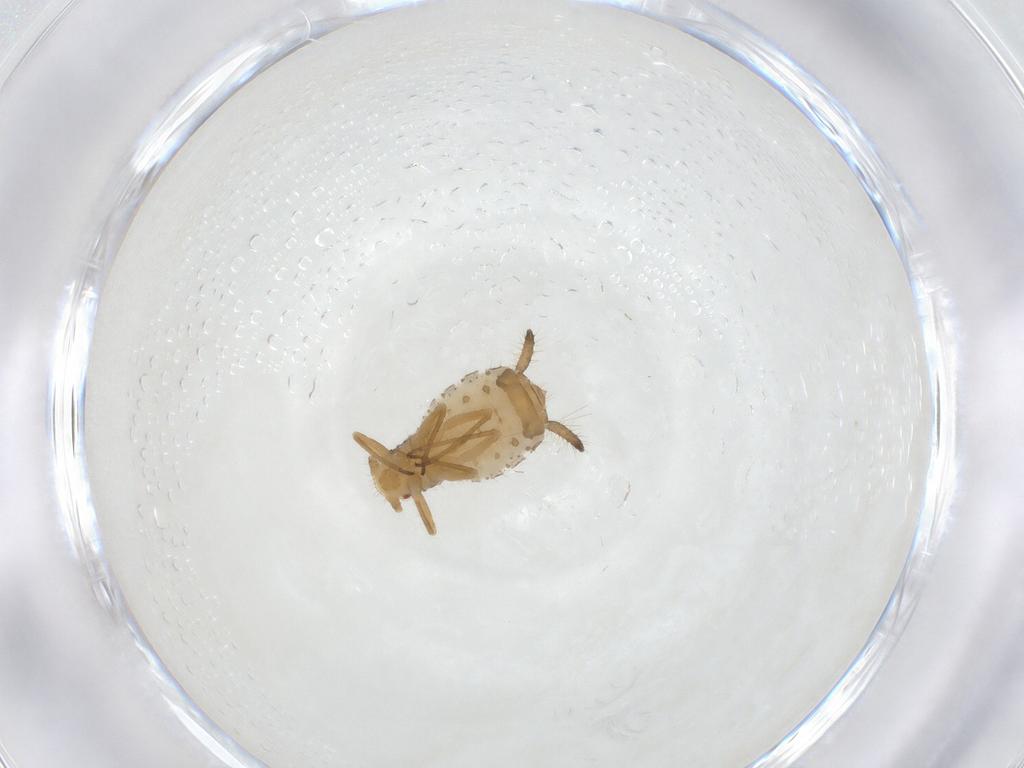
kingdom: Animalia
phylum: Arthropoda
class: Insecta
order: Hemiptera
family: Aphididae
